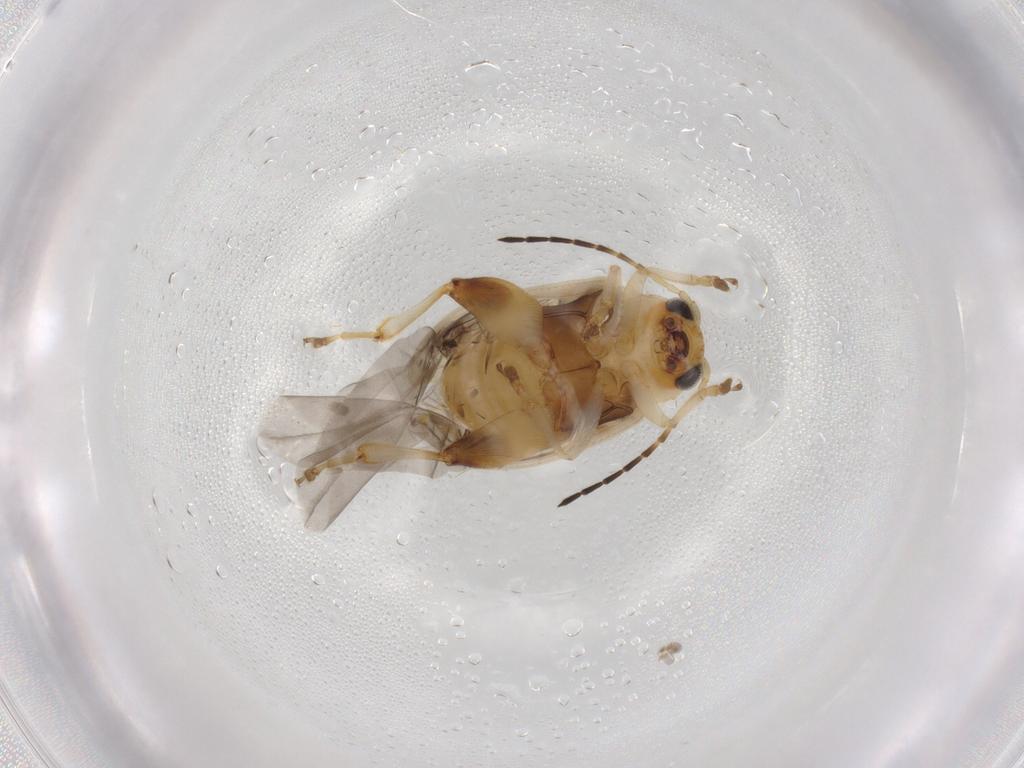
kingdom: Animalia
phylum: Arthropoda
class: Insecta
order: Coleoptera
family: Chrysomelidae
